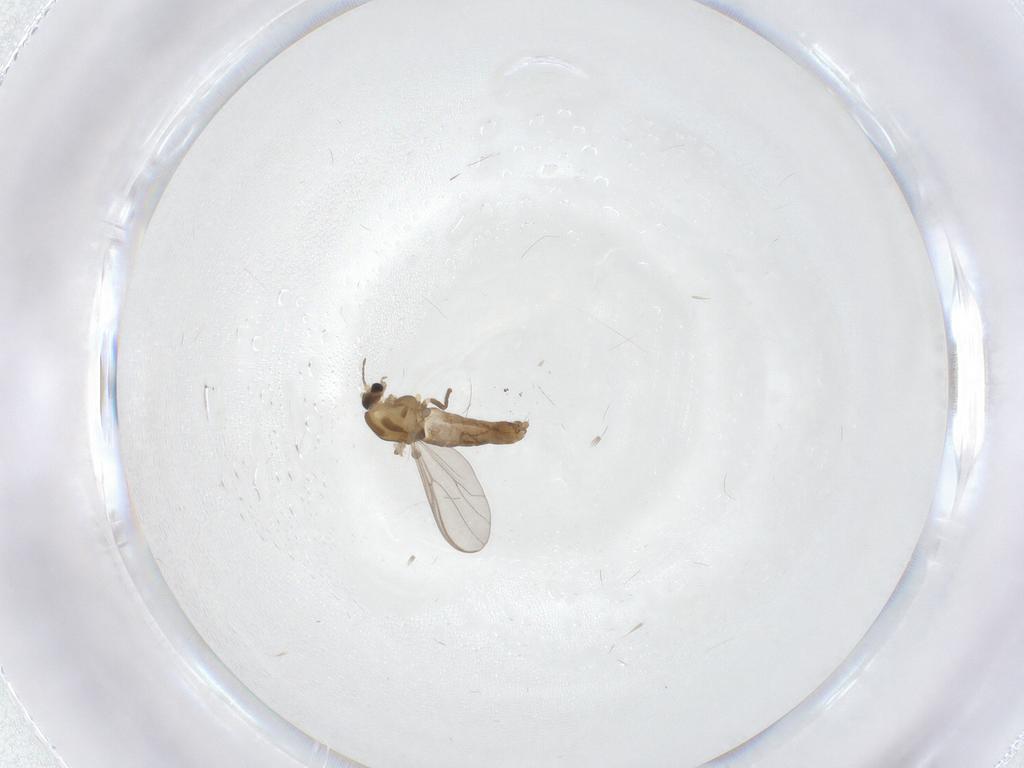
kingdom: Animalia
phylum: Arthropoda
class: Insecta
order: Diptera
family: Chironomidae
